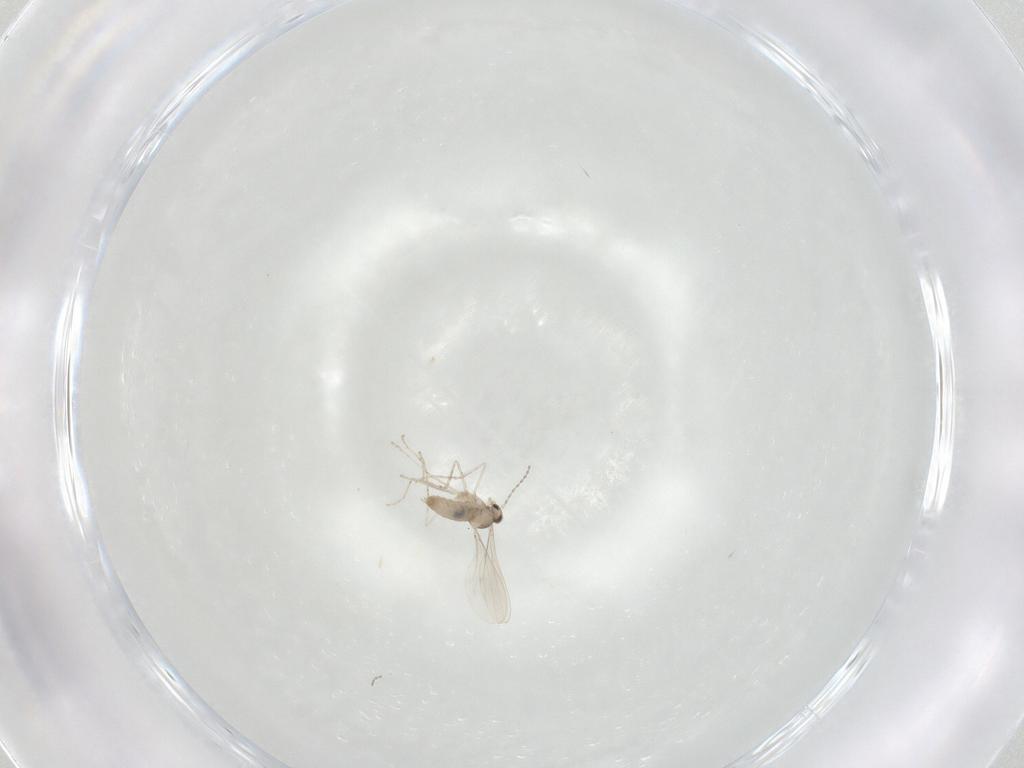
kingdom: Animalia
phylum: Arthropoda
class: Insecta
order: Diptera
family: Cecidomyiidae
